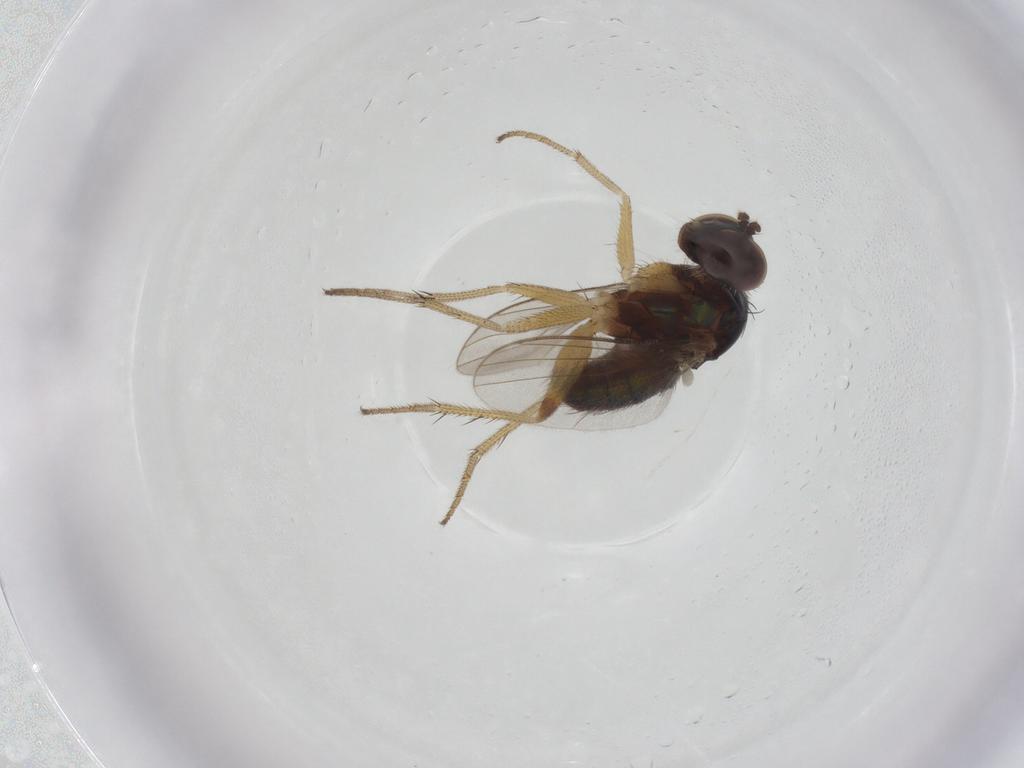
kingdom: Animalia
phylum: Arthropoda
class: Insecta
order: Diptera
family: Dolichopodidae
